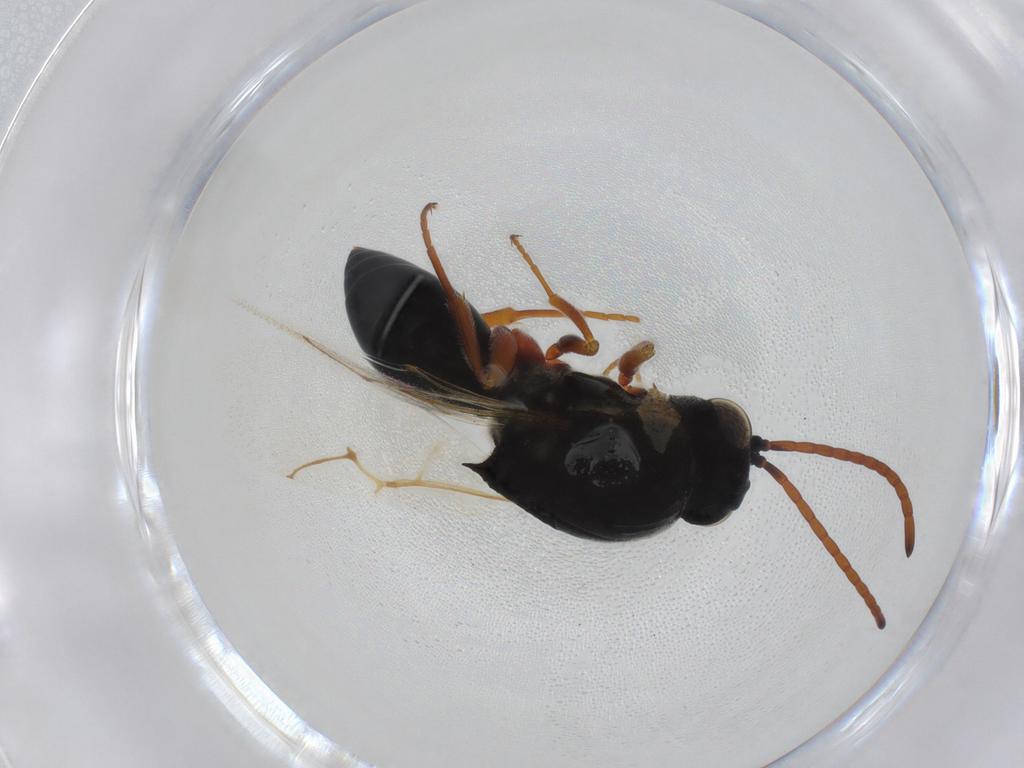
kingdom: Animalia
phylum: Arthropoda
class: Insecta
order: Hymenoptera
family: Figitidae
